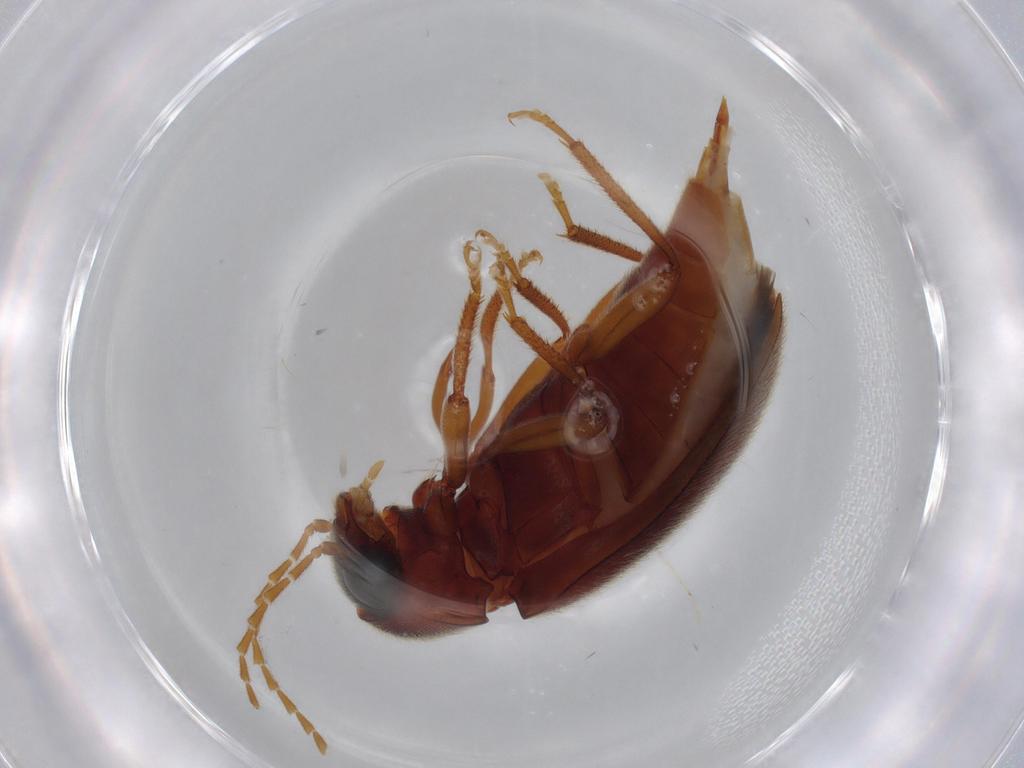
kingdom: Animalia
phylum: Arthropoda
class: Insecta
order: Coleoptera
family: Ptilodactylidae
